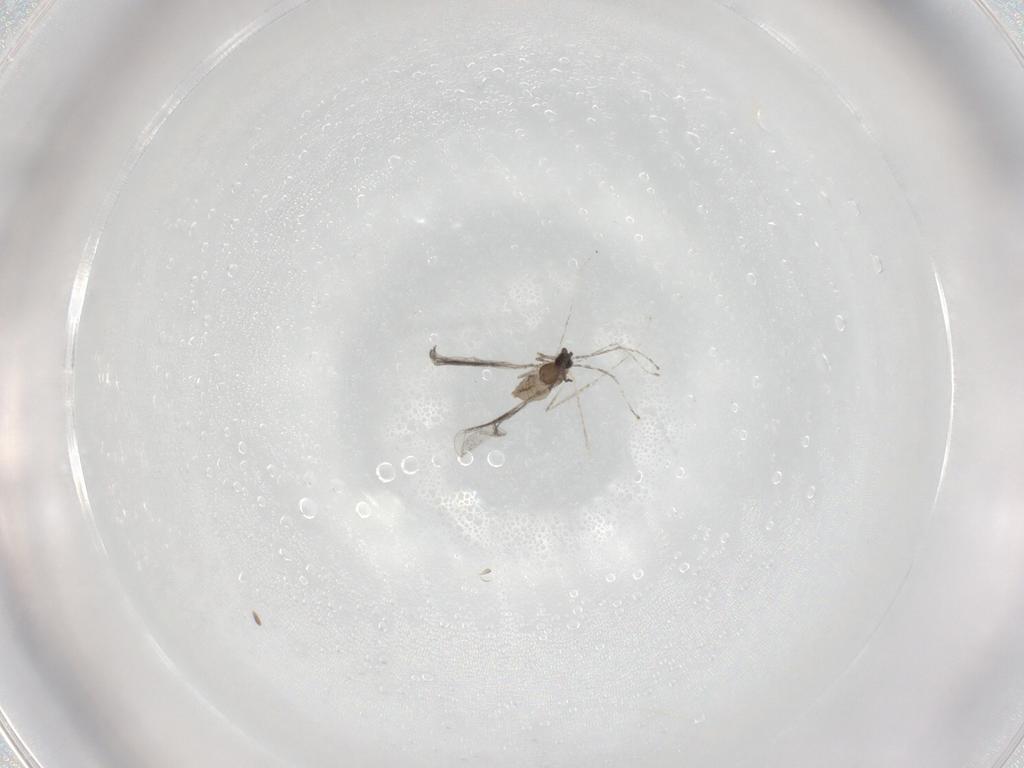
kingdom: Animalia
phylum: Arthropoda
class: Insecta
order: Diptera
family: Cecidomyiidae
